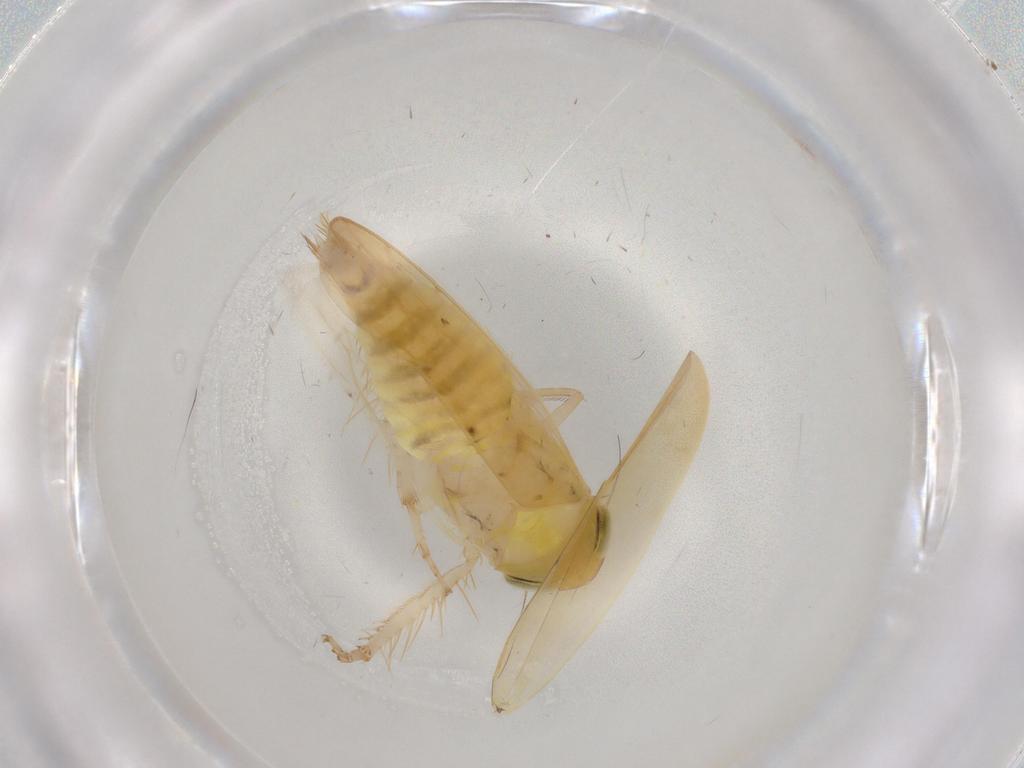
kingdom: Animalia
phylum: Arthropoda
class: Insecta
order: Hemiptera
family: Cicadellidae
